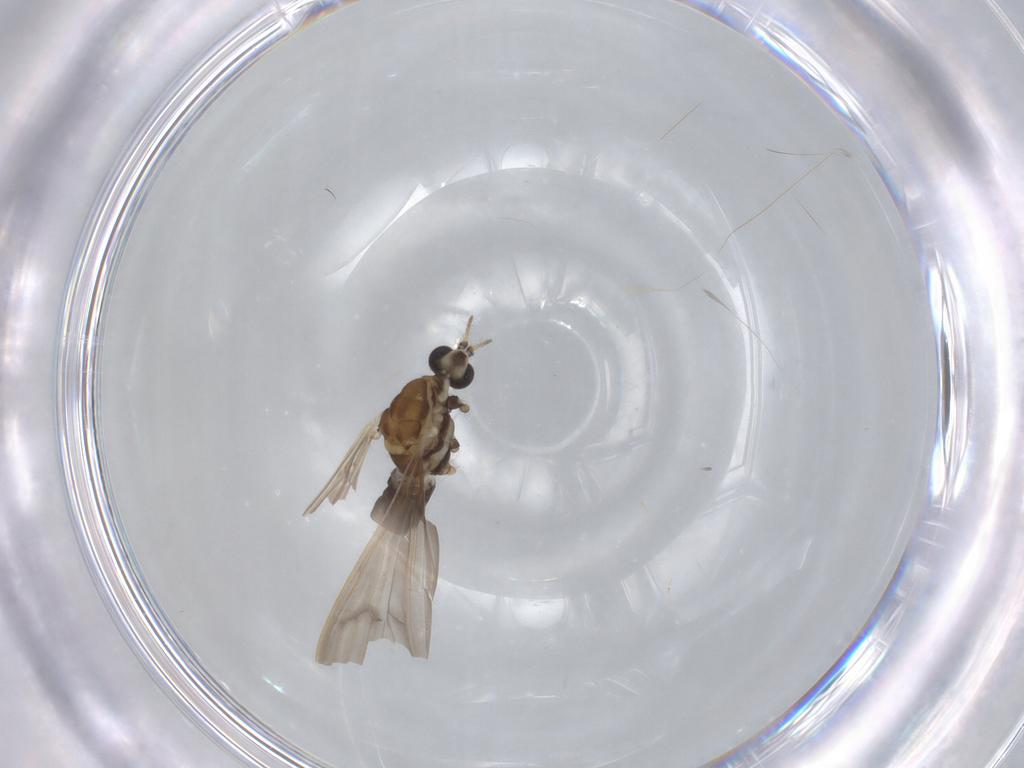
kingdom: Animalia
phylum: Arthropoda
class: Insecta
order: Diptera
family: Limoniidae
